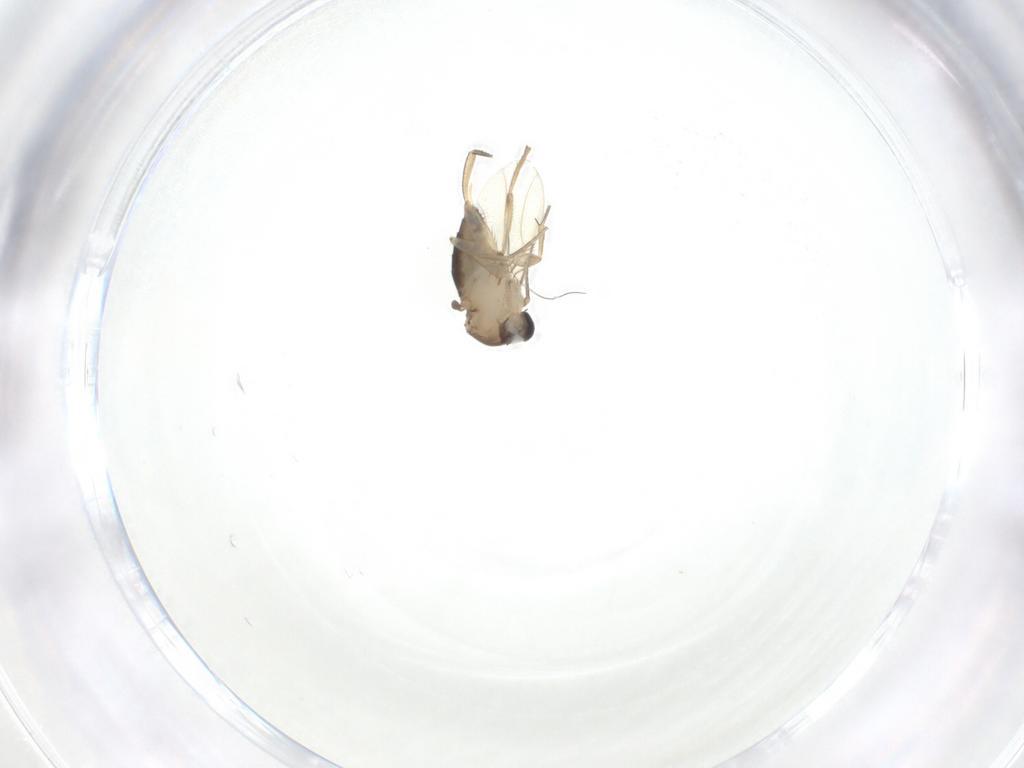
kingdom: Animalia
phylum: Arthropoda
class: Insecta
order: Diptera
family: Phoridae
